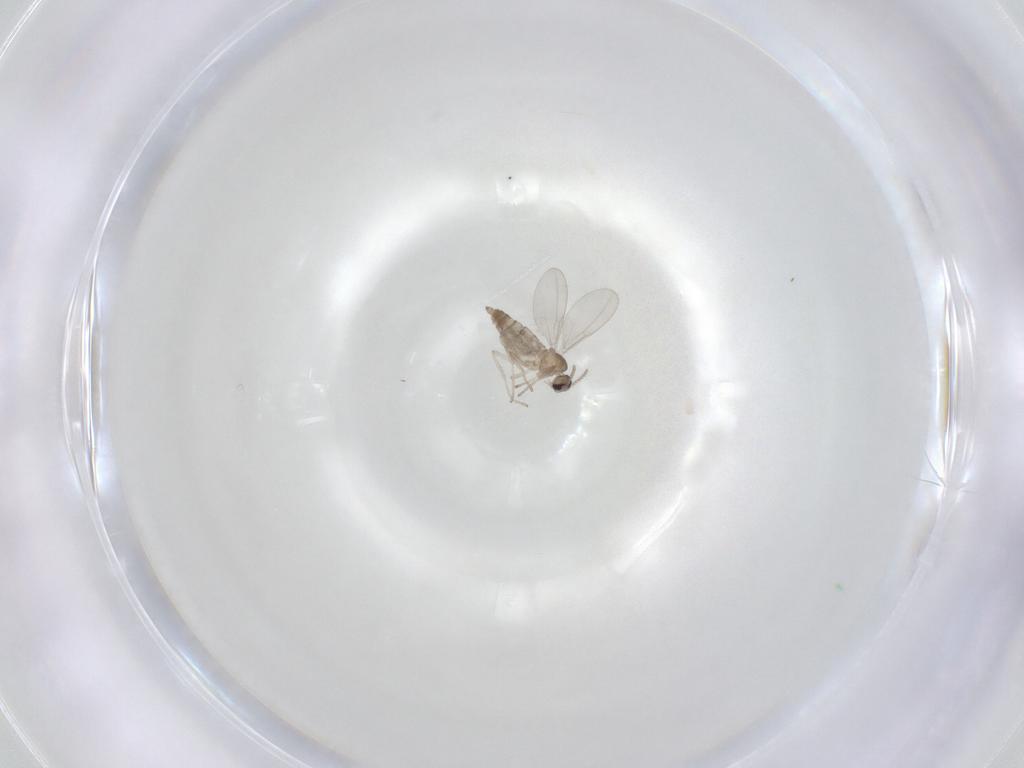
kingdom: Animalia
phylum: Arthropoda
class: Insecta
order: Diptera
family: Cecidomyiidae
